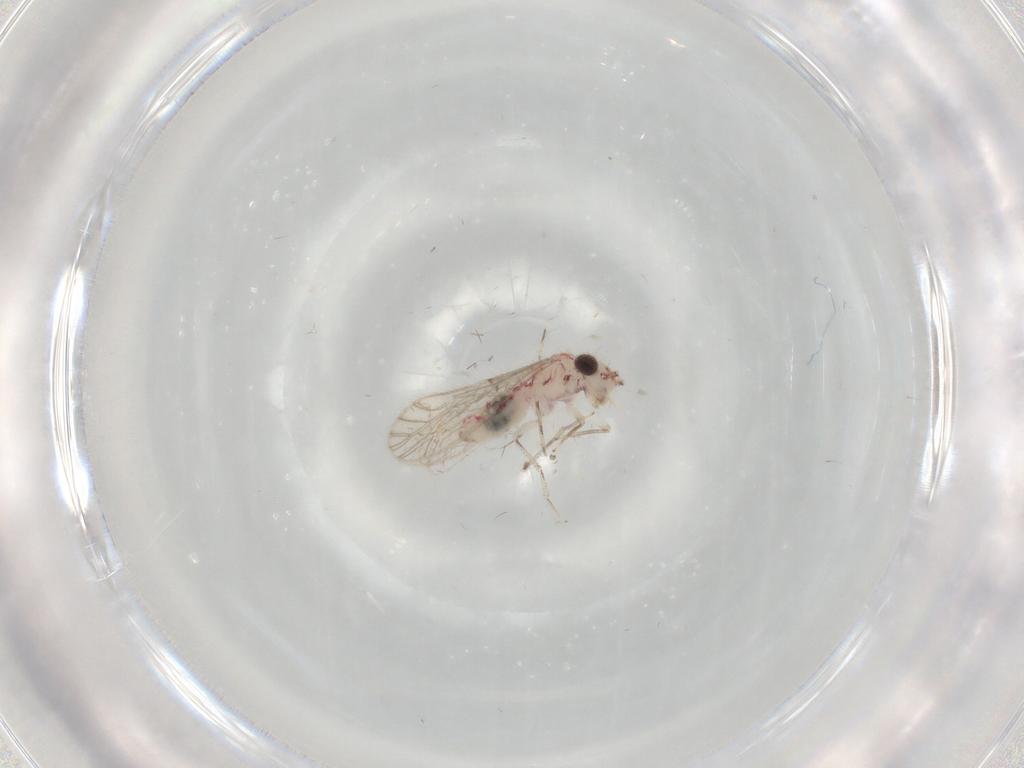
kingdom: Animalia
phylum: Arthropoda
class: Insecta
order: Psocodea
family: Caeciliusidae
